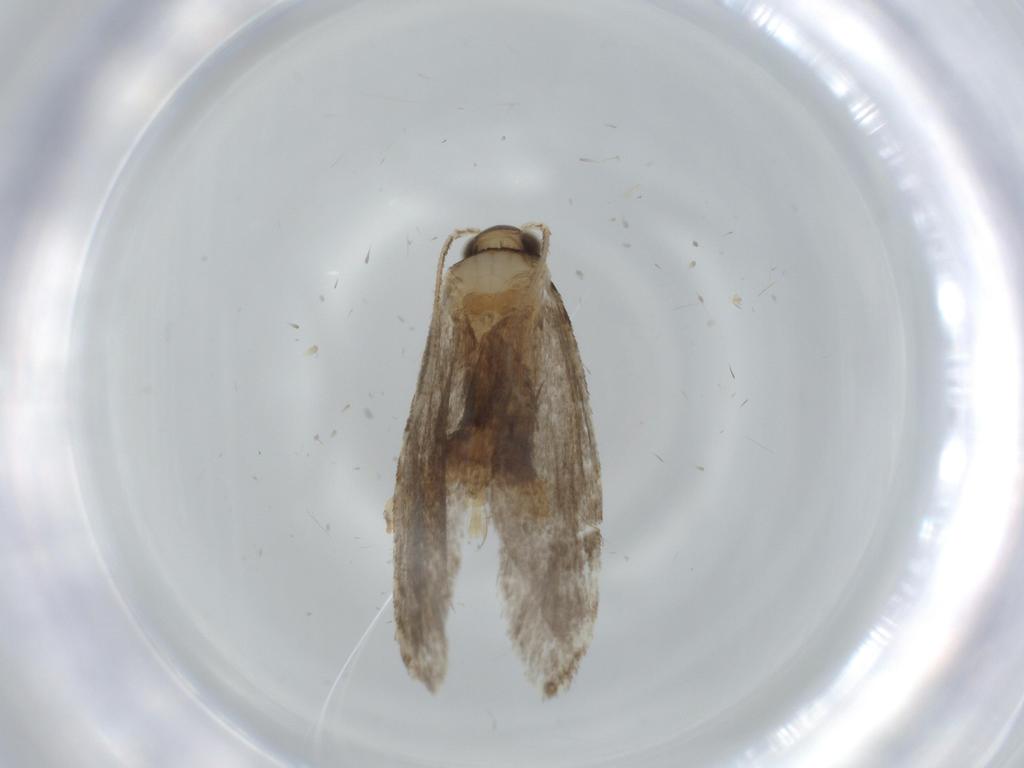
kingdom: Animalia
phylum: Arthropoda
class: Insecta
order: Lepidoptera
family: Tineidae
